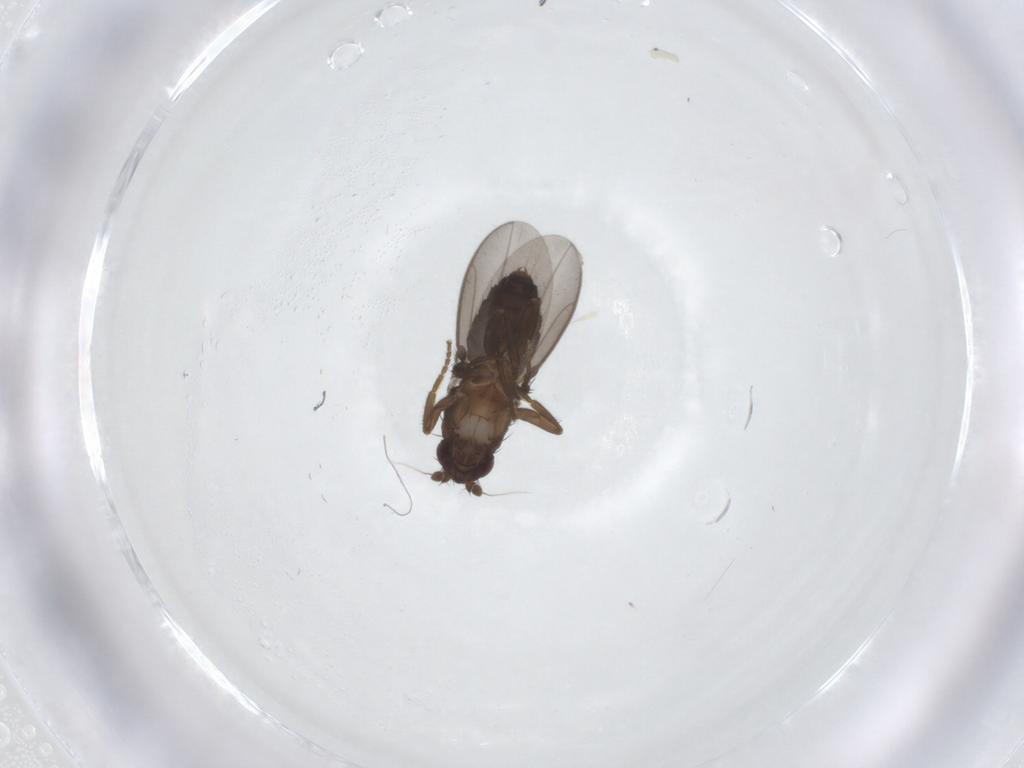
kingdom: Animalia
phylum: Arthropoda
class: Insecta
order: Diptera
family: Sphaeroceridae
